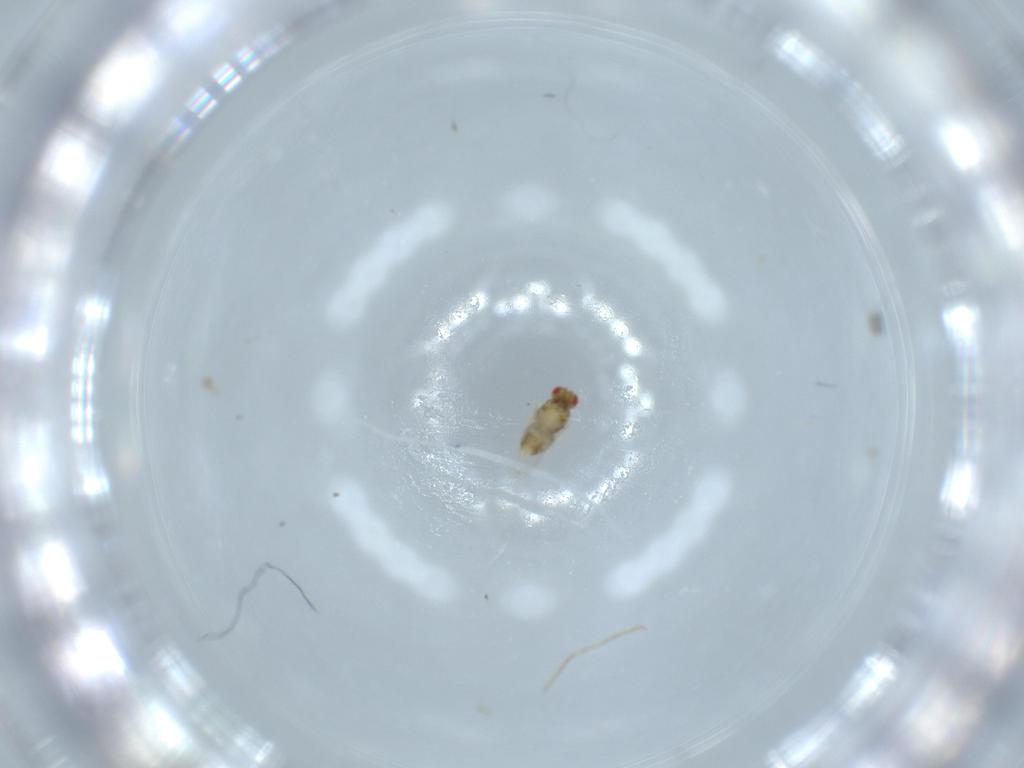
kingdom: Animalia
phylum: Arthropoda
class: Insecta
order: Hymenoptera
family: Aphelinidae
